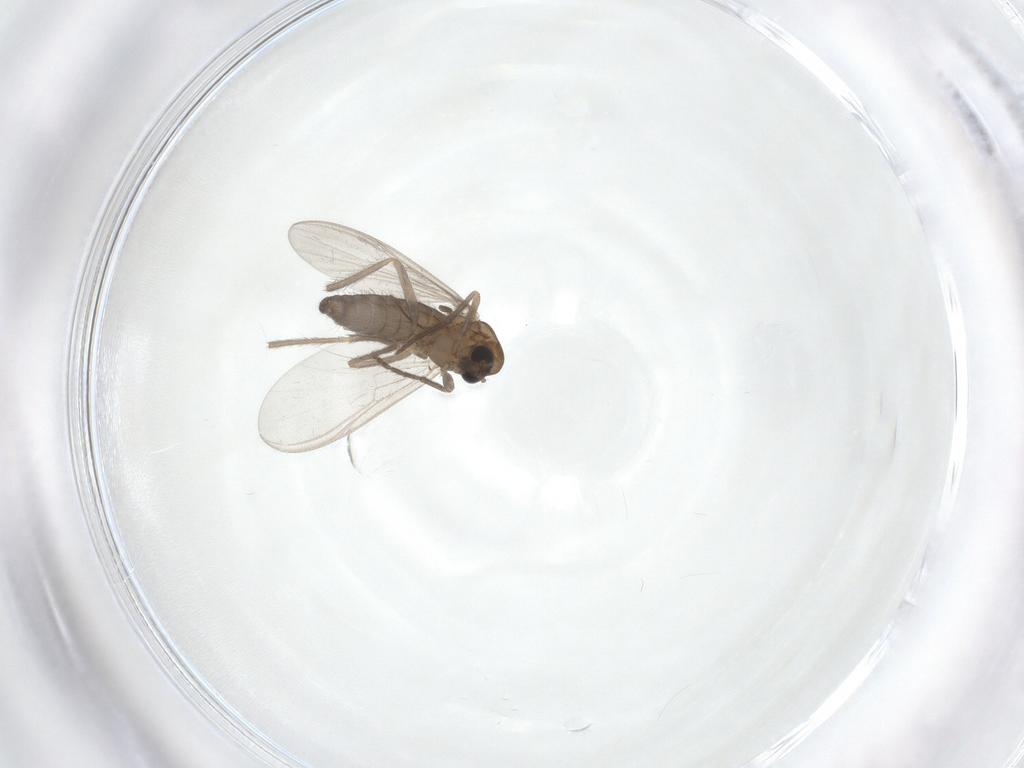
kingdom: Animalia
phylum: Arthropoda
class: Insecta
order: Diptera
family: Chironomidae
